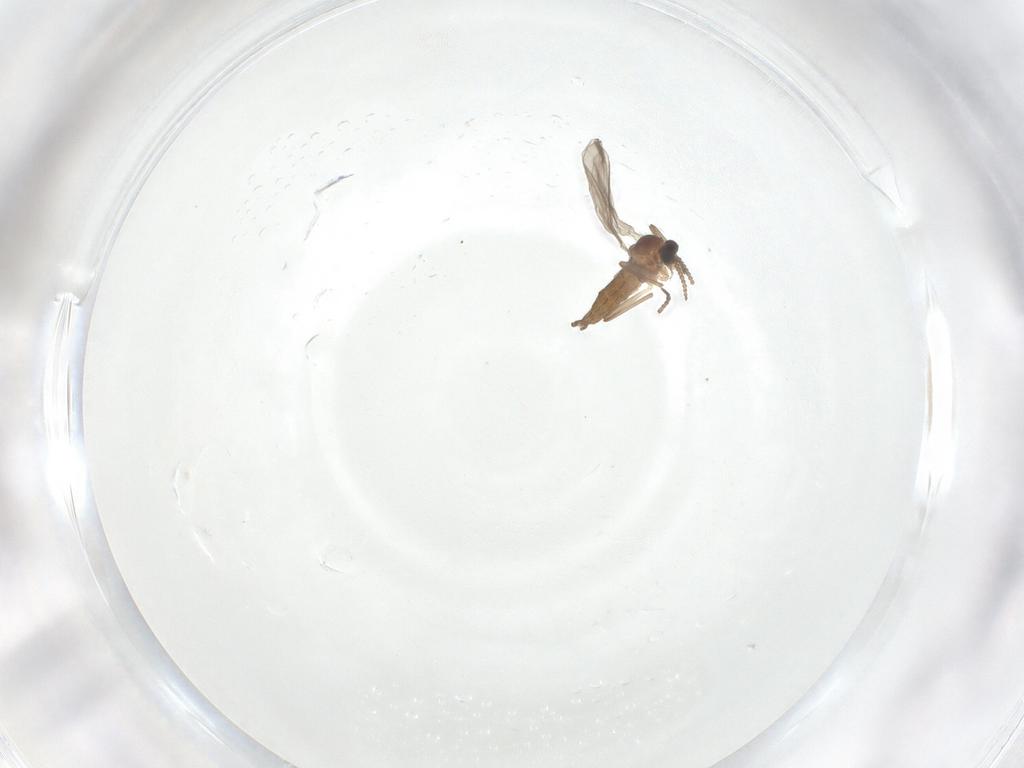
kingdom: Animalia
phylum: Arthropoda
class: Insecta
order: Diptera
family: Cecidomyiidae
